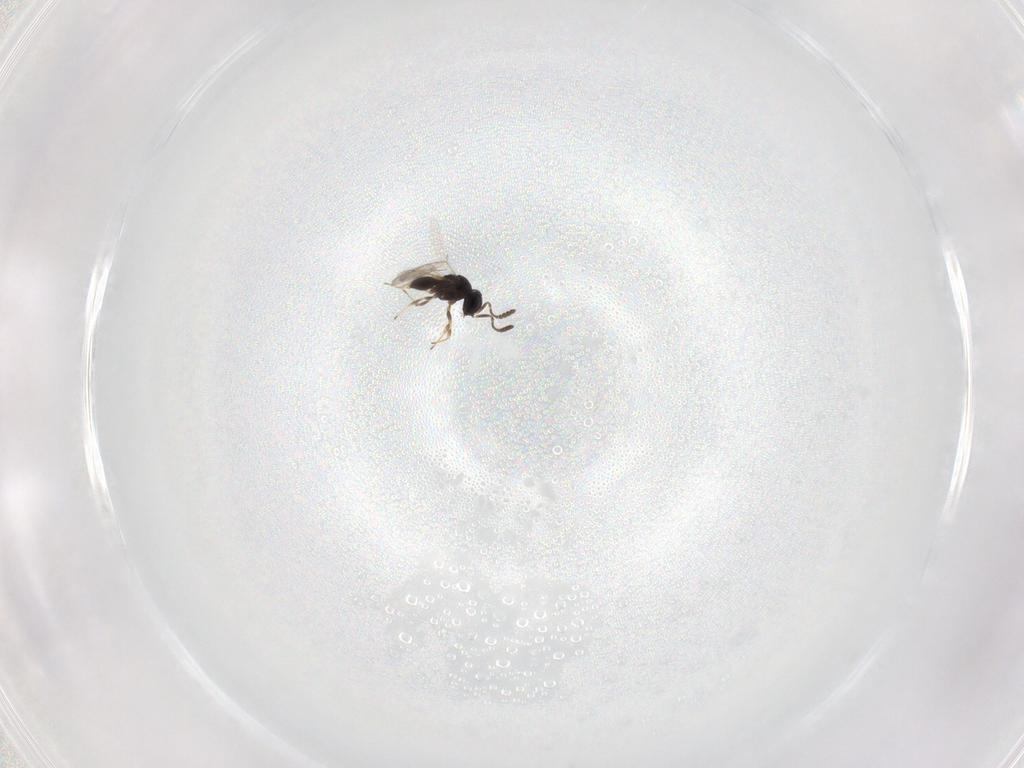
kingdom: Animalia
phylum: Arthropoda
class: Insecta
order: Hymenoptera
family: Scelionidae
